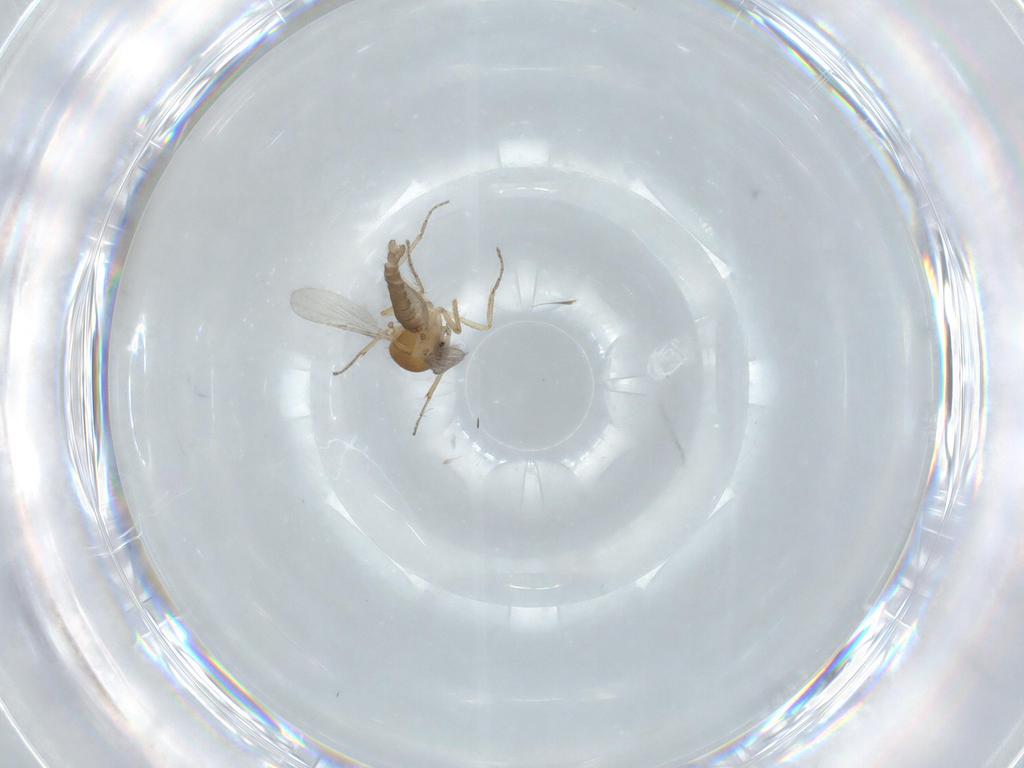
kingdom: Animalia
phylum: Arthropoda
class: Insecta
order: Diptera
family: Ceratopogonidae
